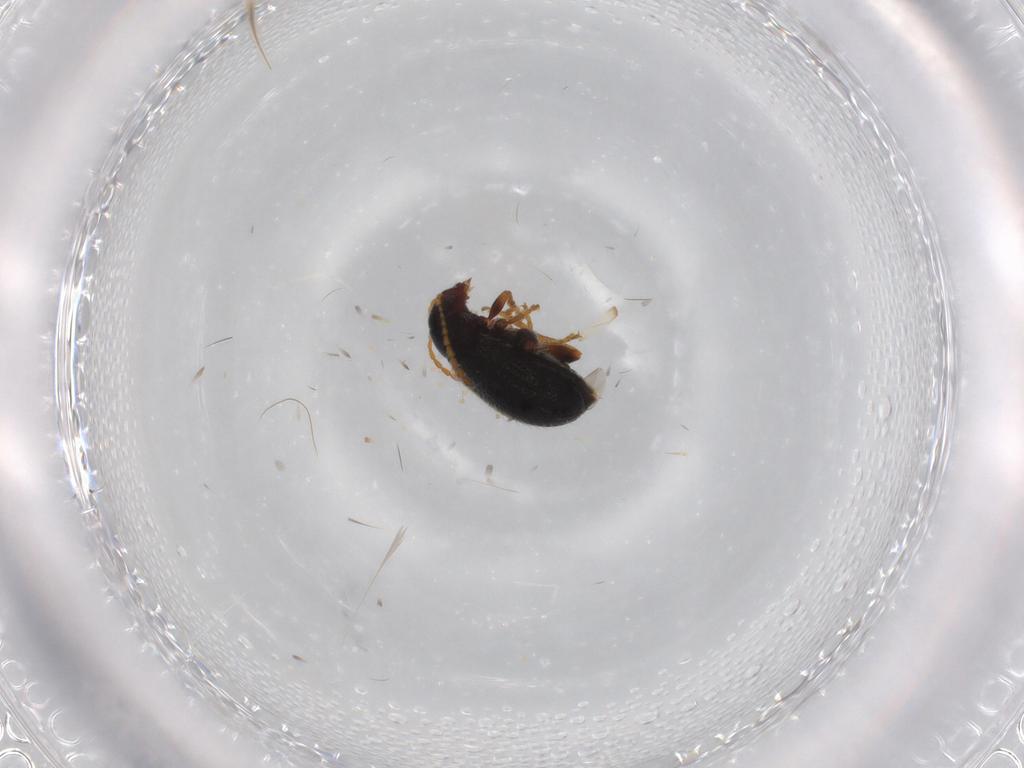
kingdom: Animalia
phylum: Arthropoda
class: Insecta
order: Coleoptera
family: Chrysomelidae
